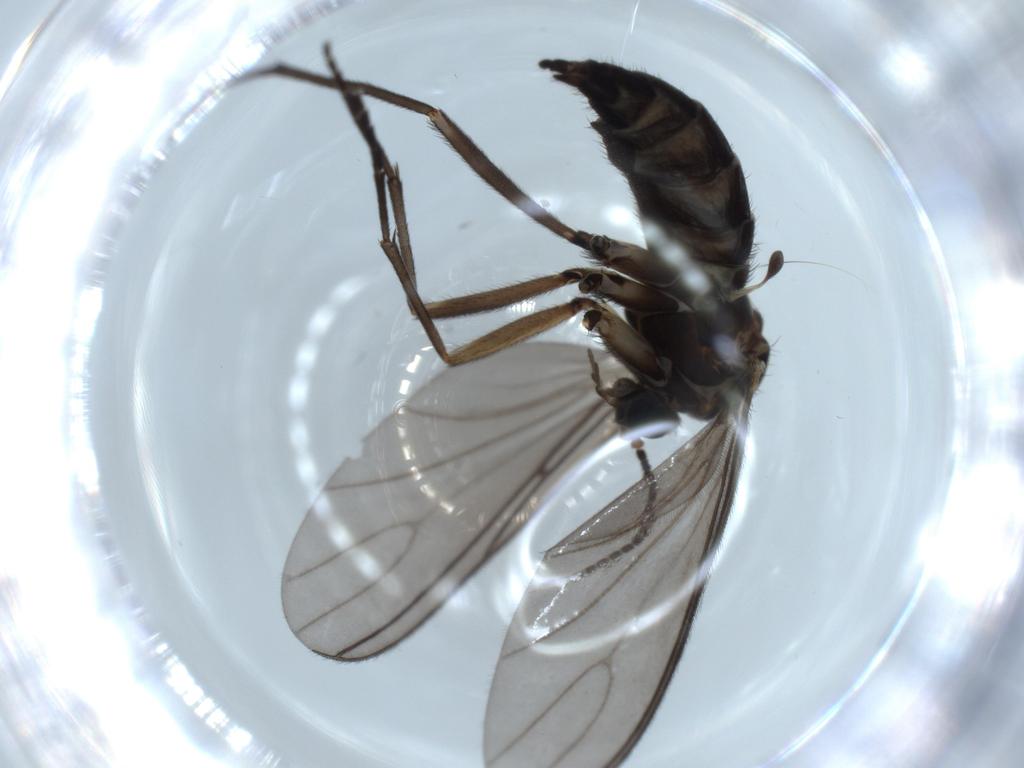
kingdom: Animalia
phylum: Arthropoda
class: Insecta
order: Diptera
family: Sciaridae
